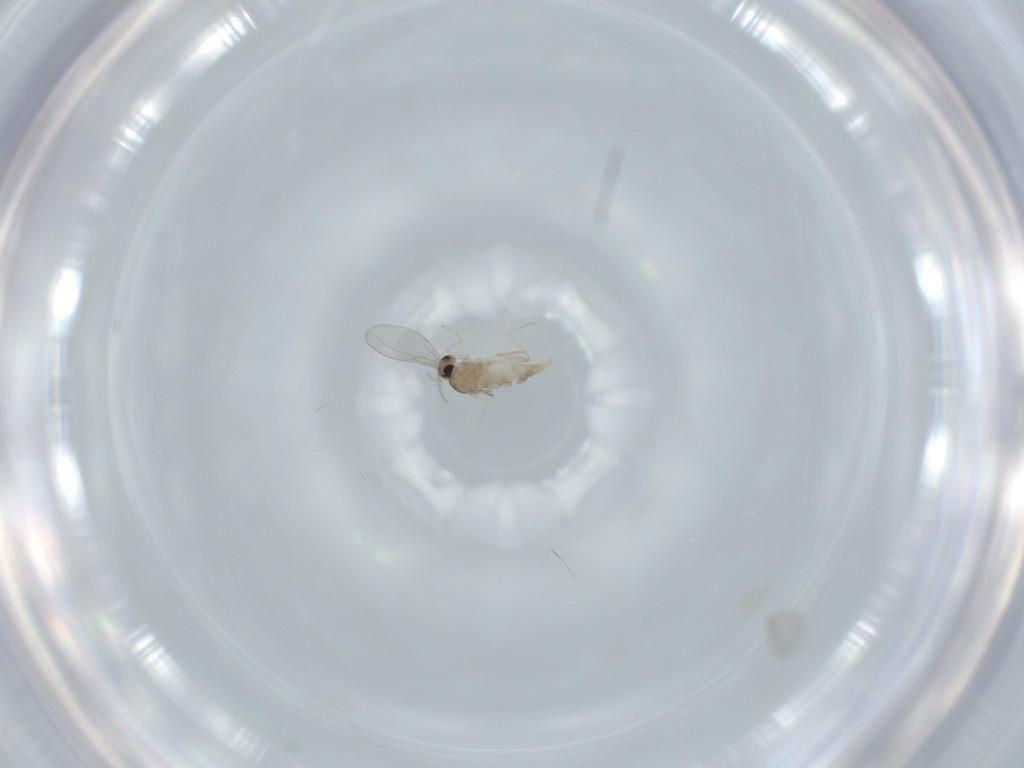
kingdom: Animalia
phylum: Arthropoda
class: Insecta
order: Diptera
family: Cecidomyiidae
